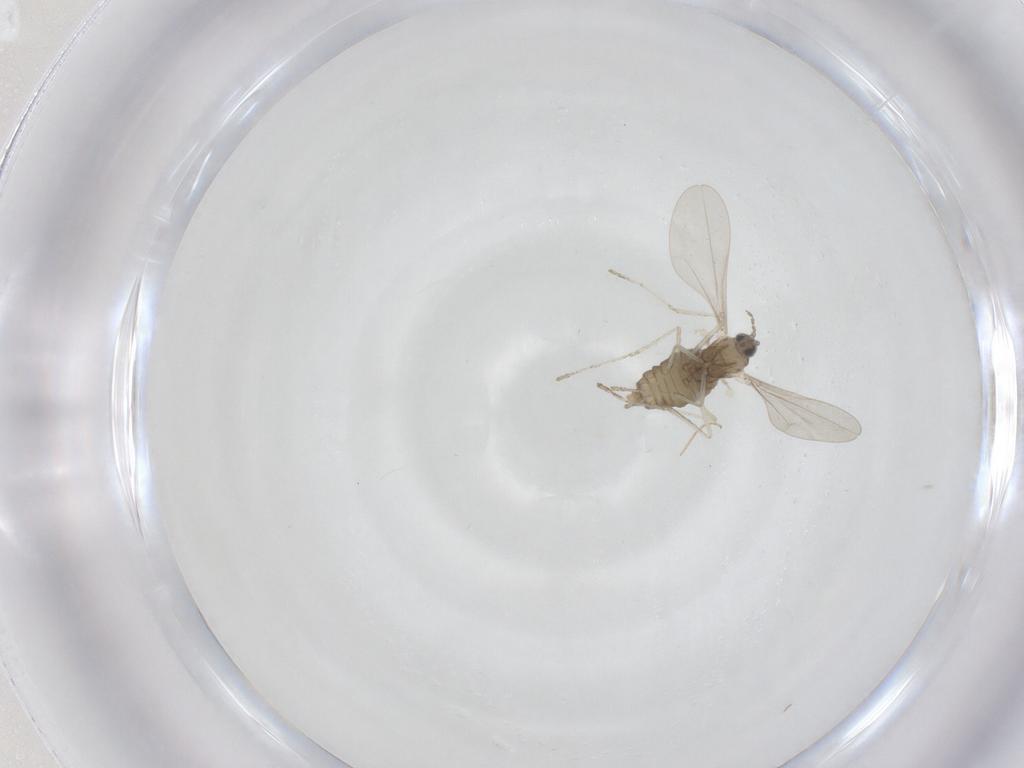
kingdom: Animalia
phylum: Arthropoda
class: Insecta
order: Diptera
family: Chironomidae
